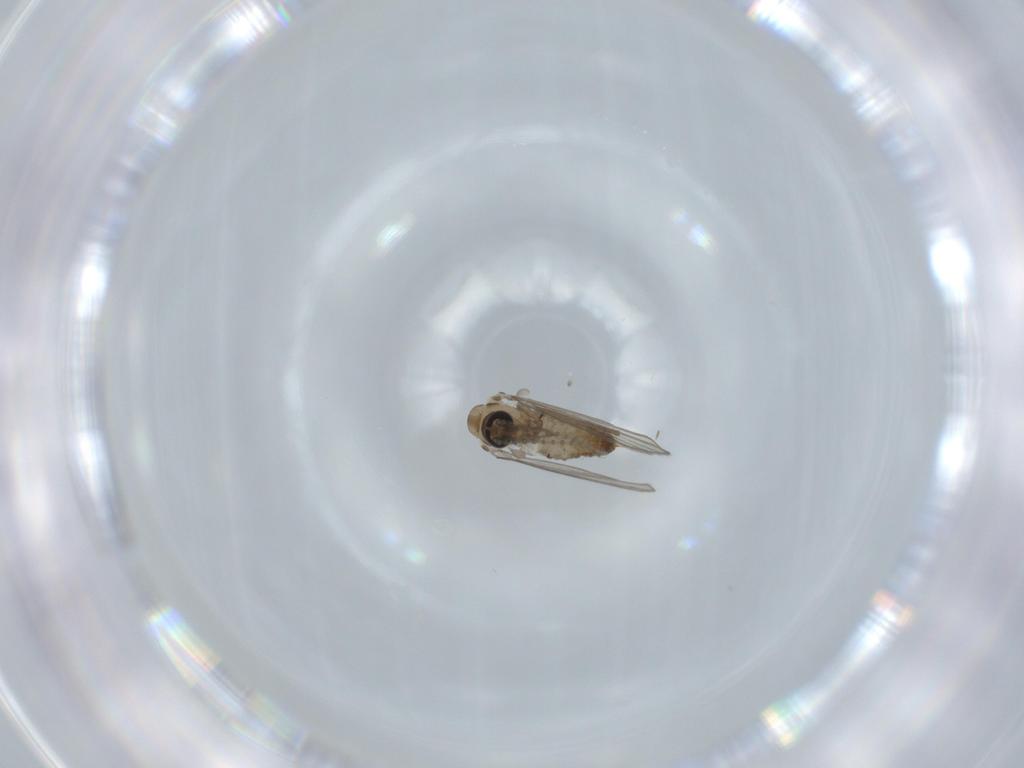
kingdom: Animalia
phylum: Arthropoda
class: Insecta
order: Diptera
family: Psychodidae
